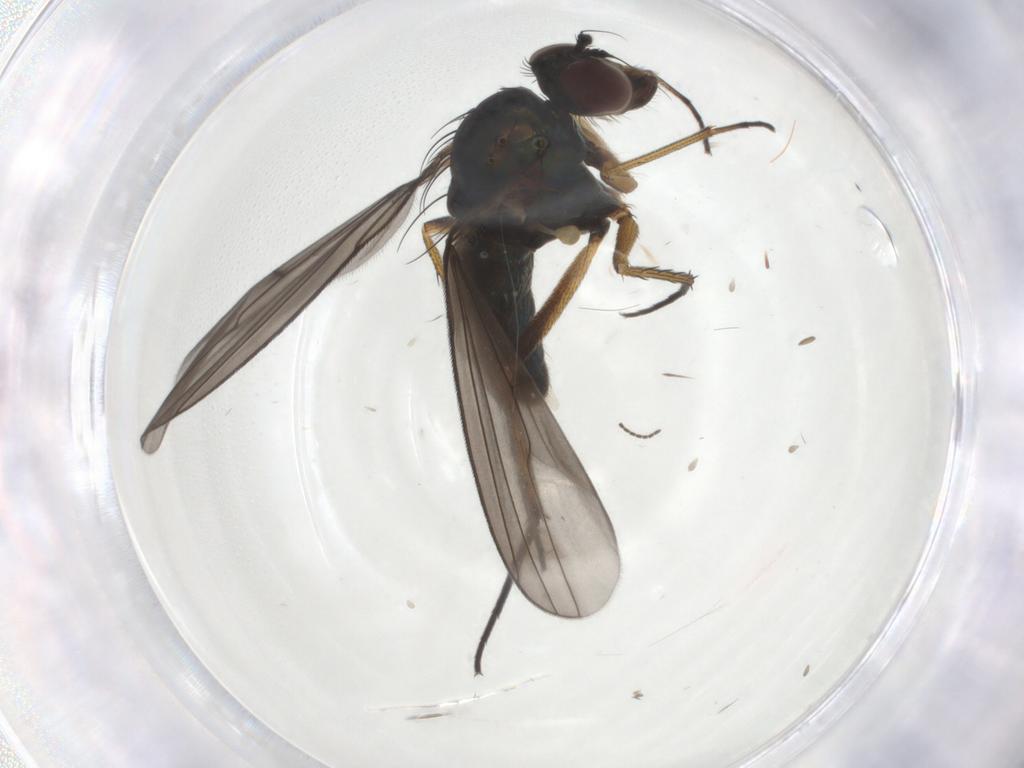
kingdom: Animalia
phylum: Arthropoda
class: Insecta
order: Diptera
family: Dolichopodidae
